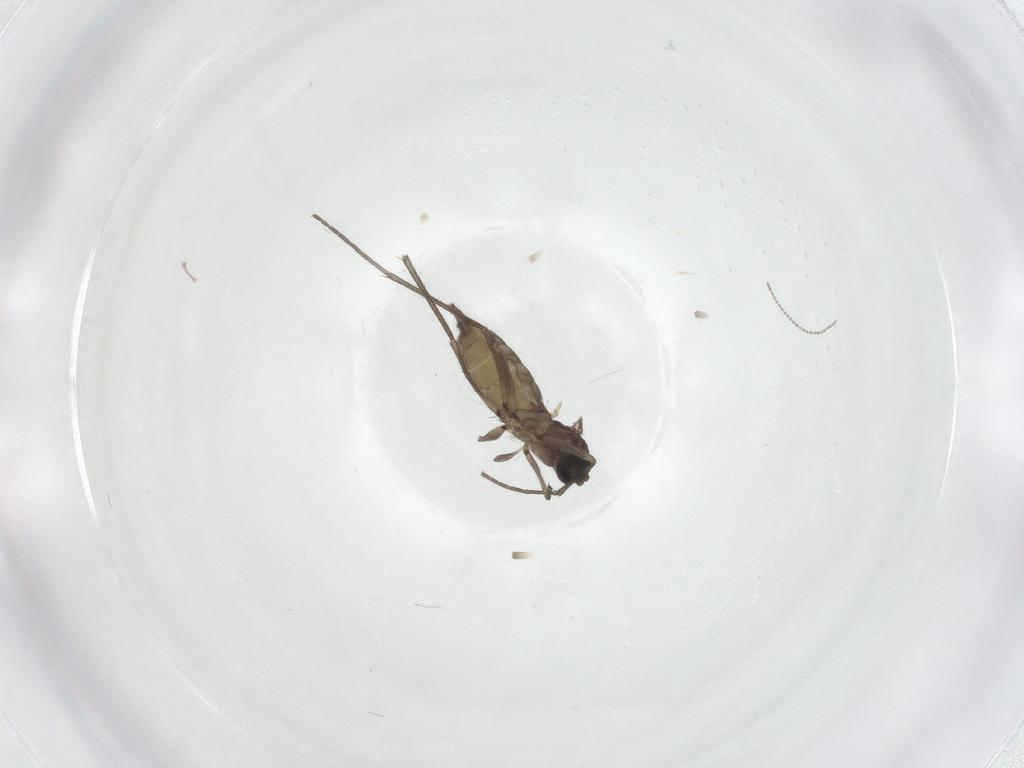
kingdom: Animalia
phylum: Arthropoda
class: Insecta
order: Diptera
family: Sciaridae
